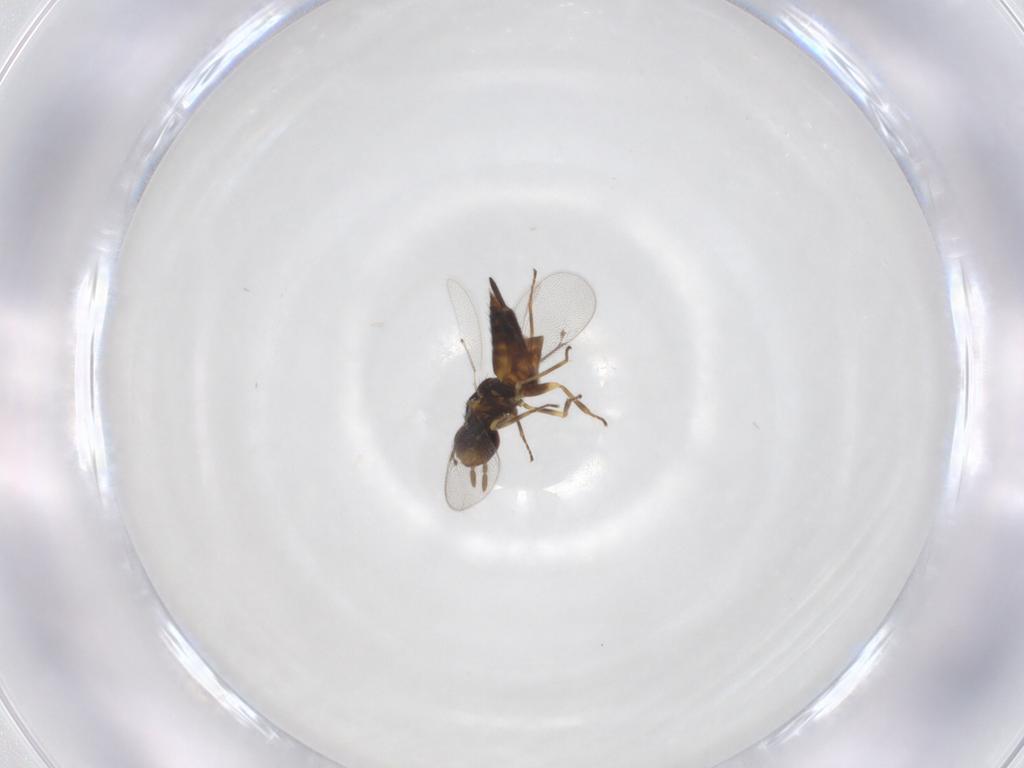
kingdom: Animalia
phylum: Arthropoda
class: Insecta
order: Hymenoptera
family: Eulophidae
